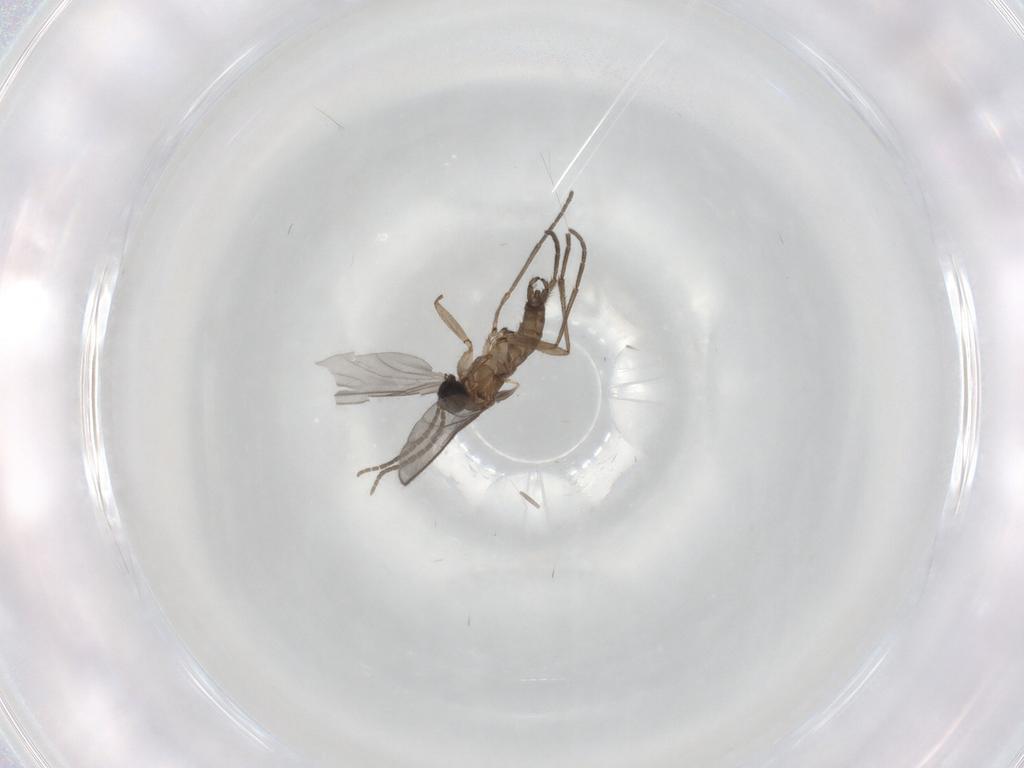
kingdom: Animalia
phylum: Arthropoda
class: Insecta
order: Diptera
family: Sciaridae
